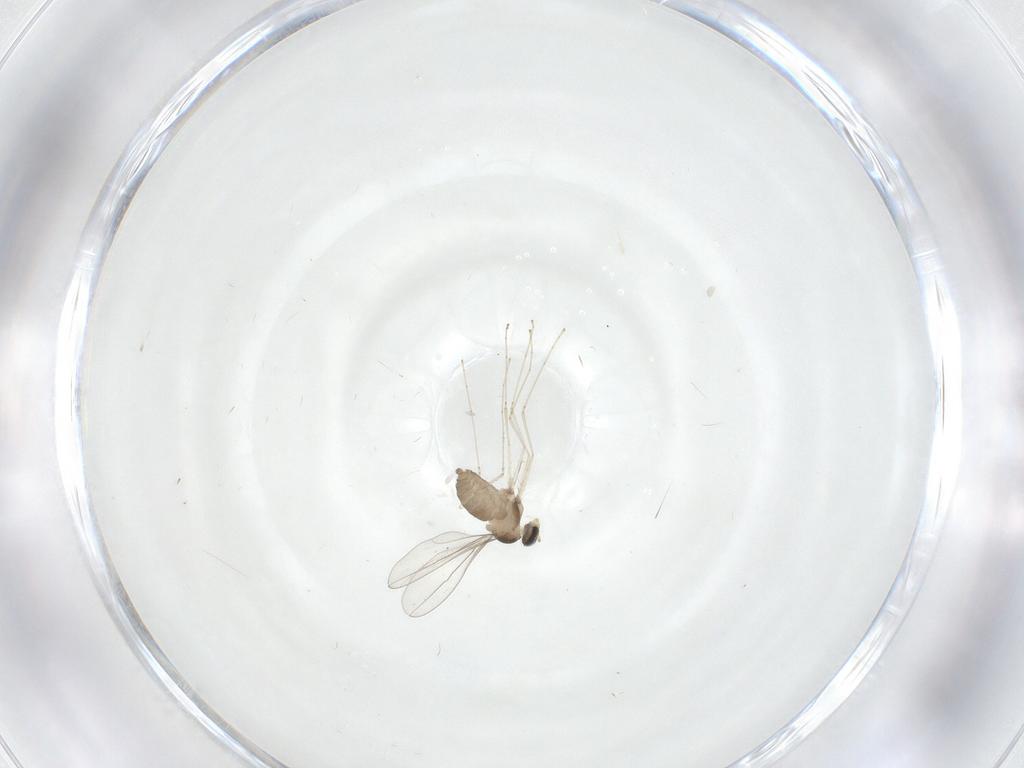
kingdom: Animalia
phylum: Arthropoda
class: Insecta
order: Diptera
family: Cecidomyiidae
